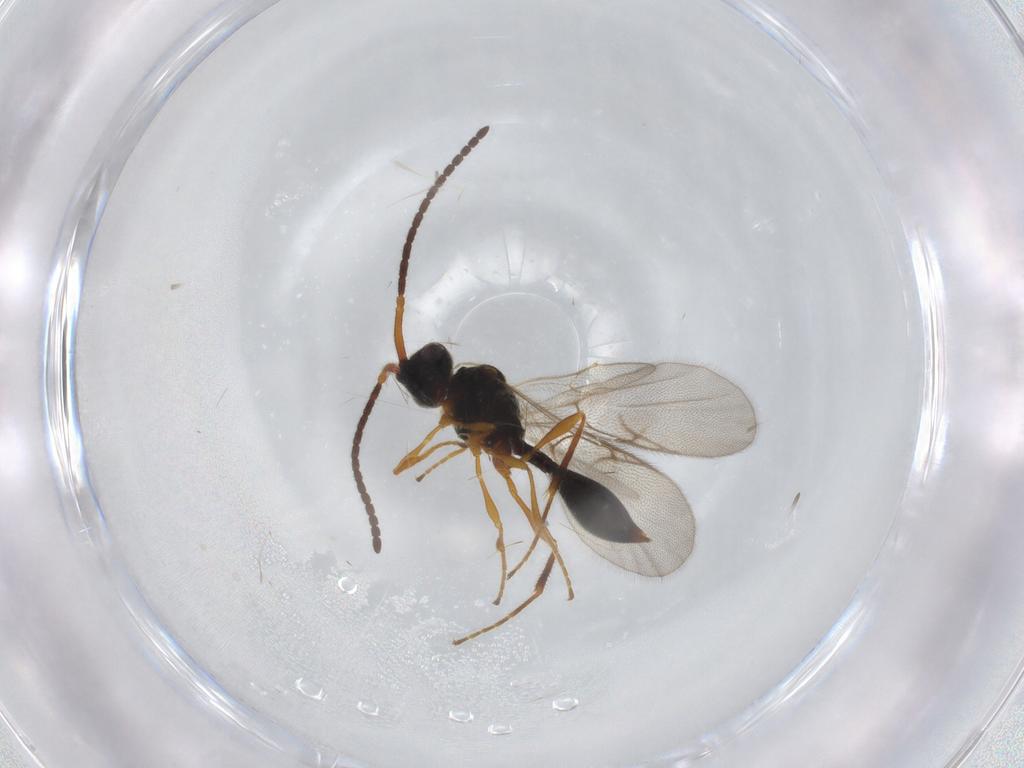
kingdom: Animalia
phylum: Arthropoda
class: Insecta
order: Hymenoptera
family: Diapriidae
